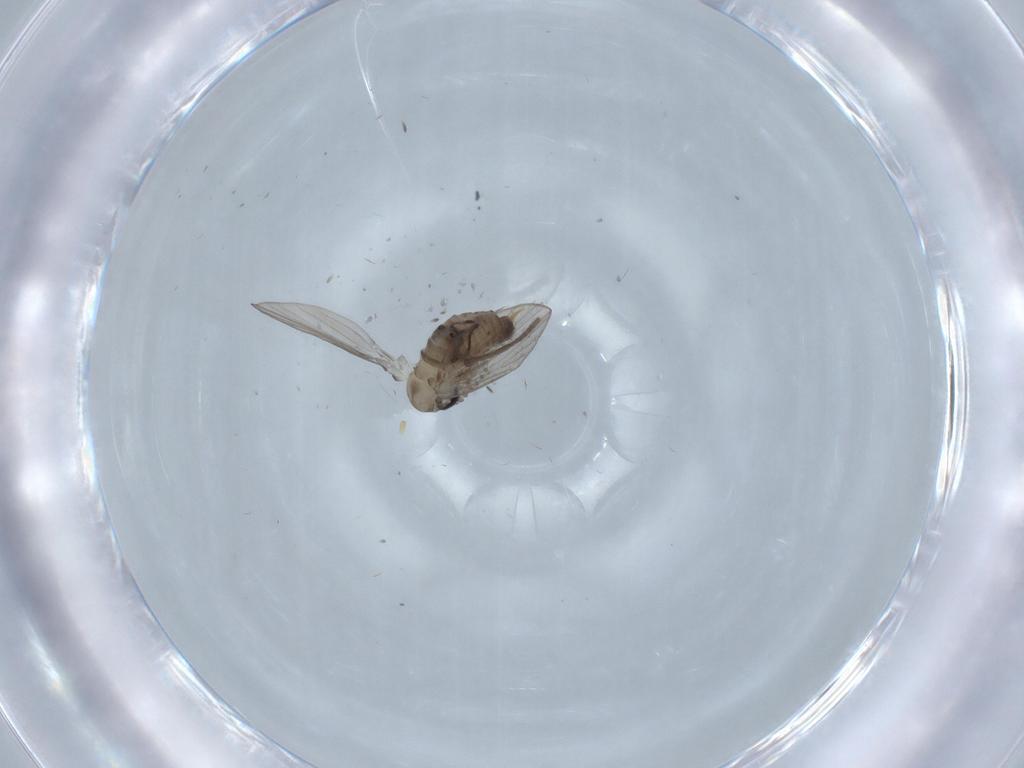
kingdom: Animalia
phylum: Arthropoda
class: Insecta
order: Diptera
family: Psychodidae
